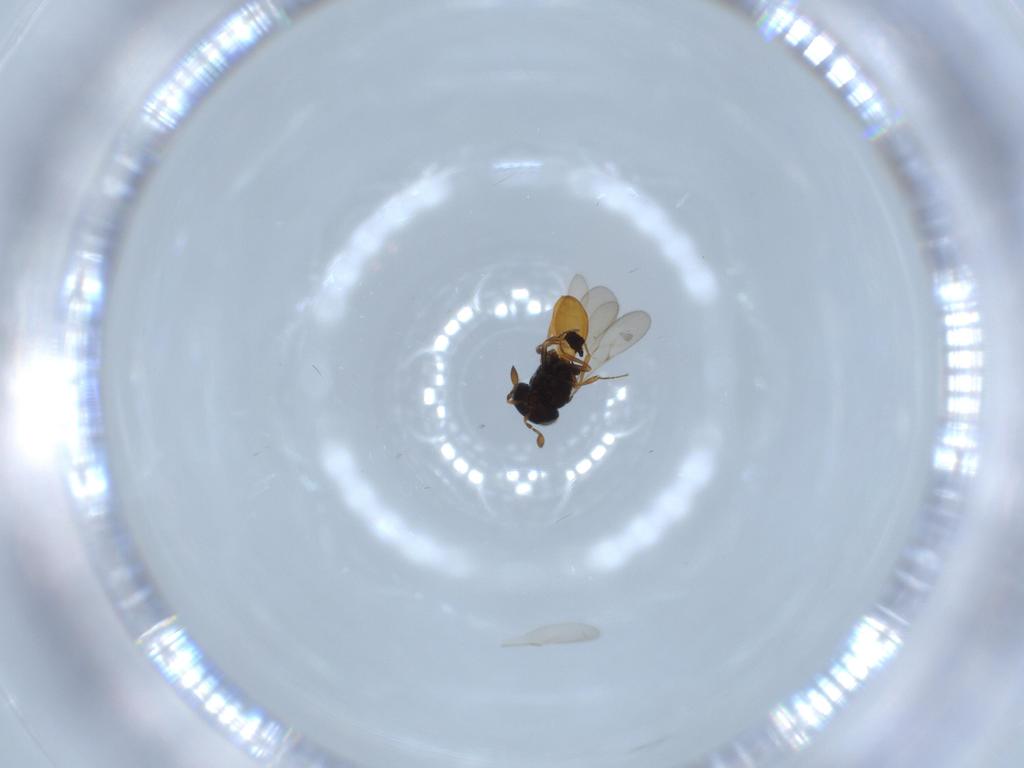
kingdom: Animalia
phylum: Arthropoda
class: Insecta
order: Hymenoptera
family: Scelionidae
